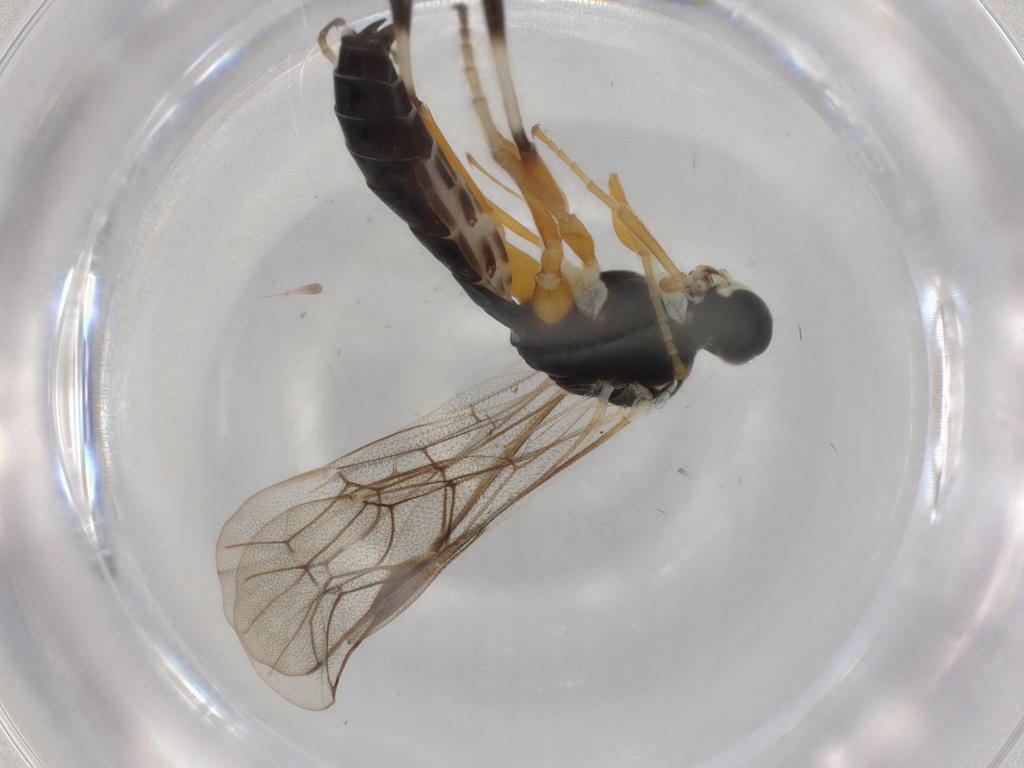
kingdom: Animalia
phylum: Arthropoda
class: Insecta
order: Hymenoptera
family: Ichneumonidae
